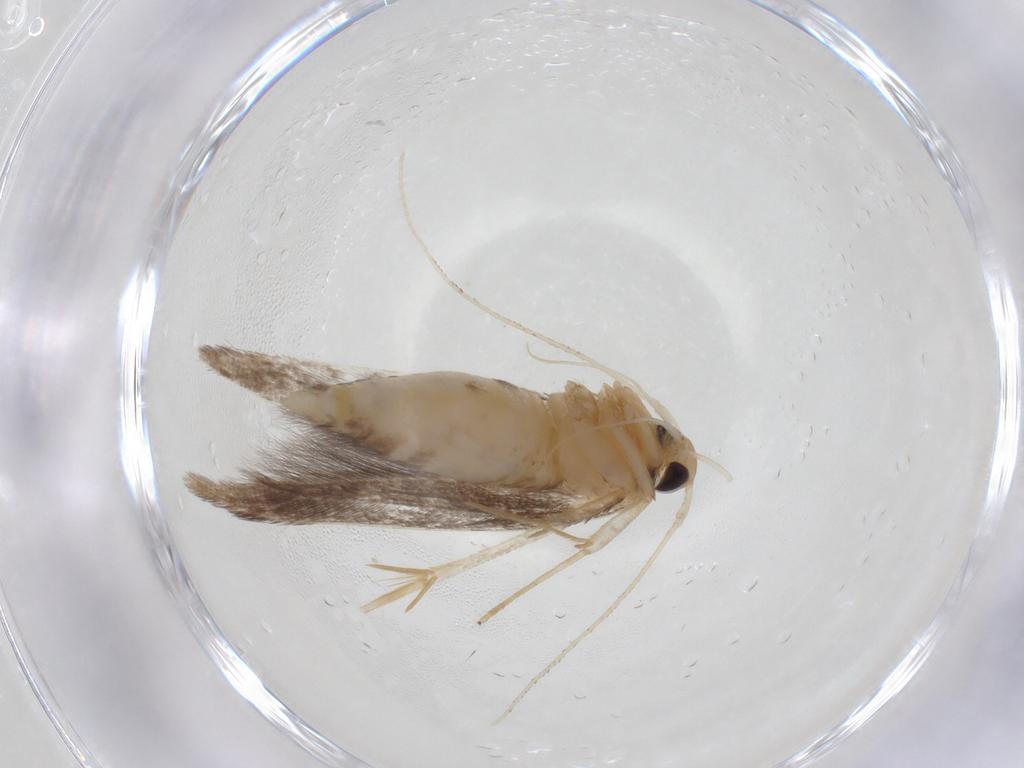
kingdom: Animalia
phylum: Arthropoda
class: Insecta
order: Lepidoptera
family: Cosmopterigidae
